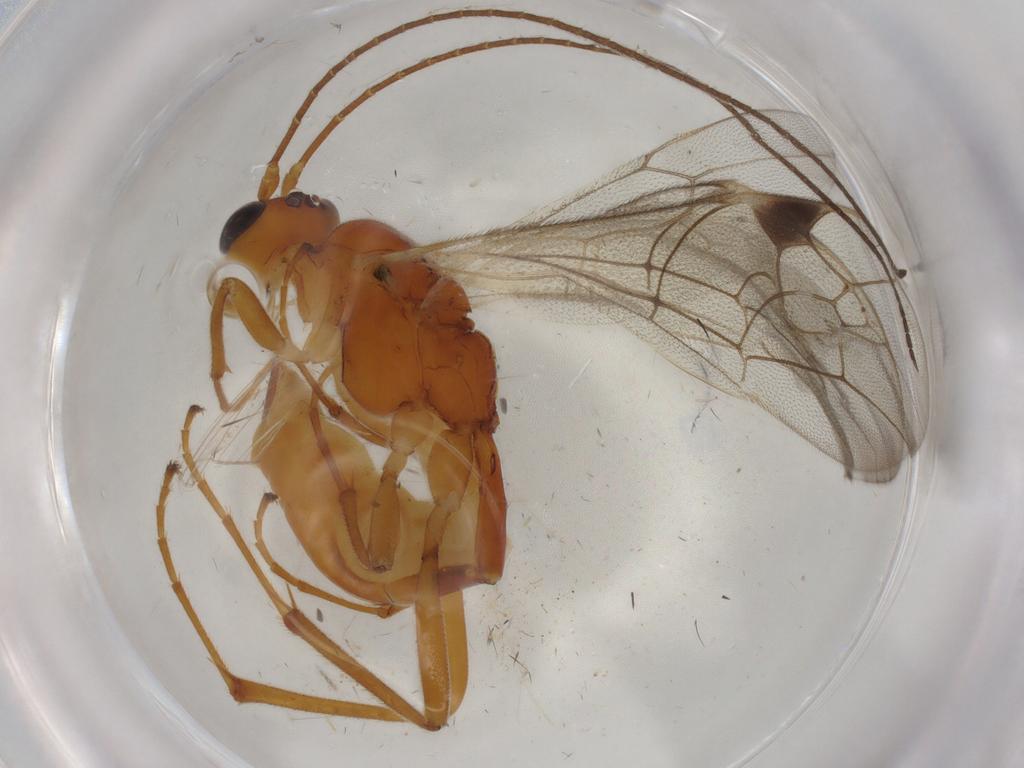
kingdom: Animalia
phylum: Arthropoda
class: Insecta
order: Hymenoptera
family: Ichneumonidae
